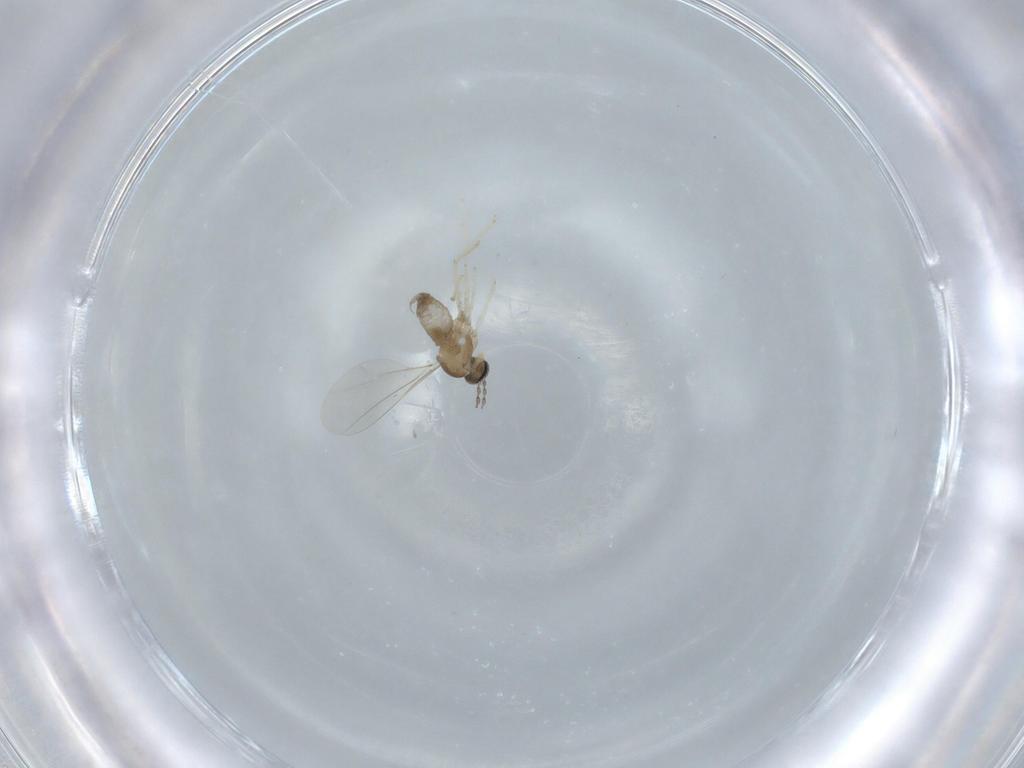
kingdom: Animalia
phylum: Arthropoda
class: Insecta
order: Diptera
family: Cecidomyiidae
